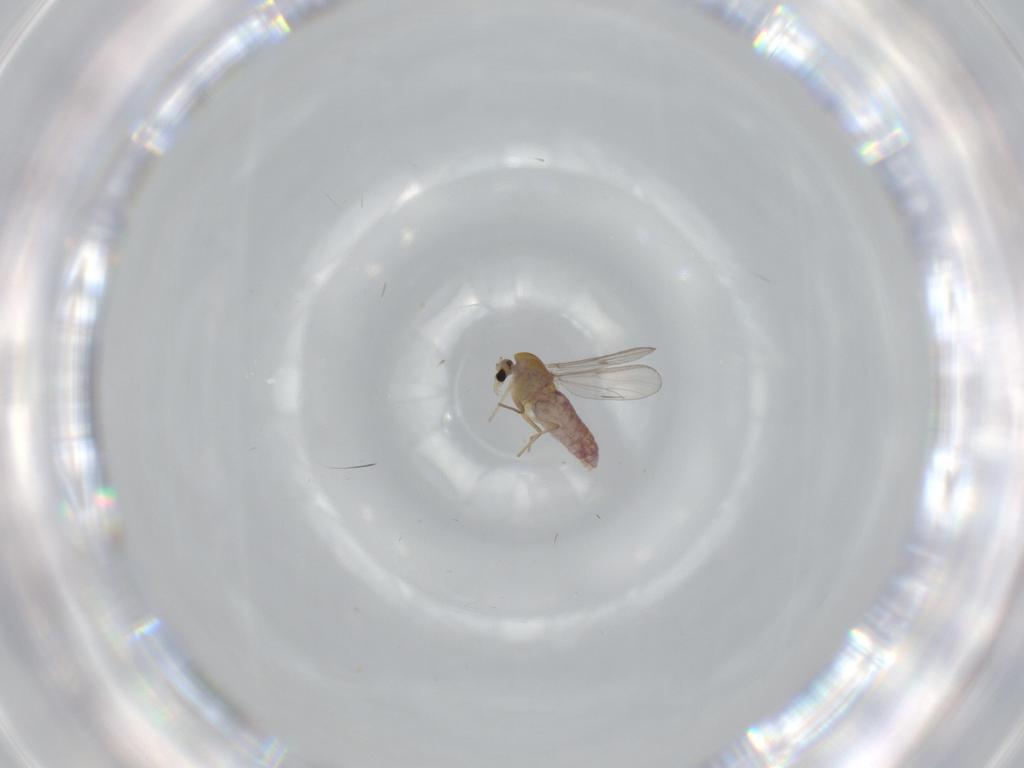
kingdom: Animalia
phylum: Arthropoda
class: Insecta
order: Diptera
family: Chironomidae
